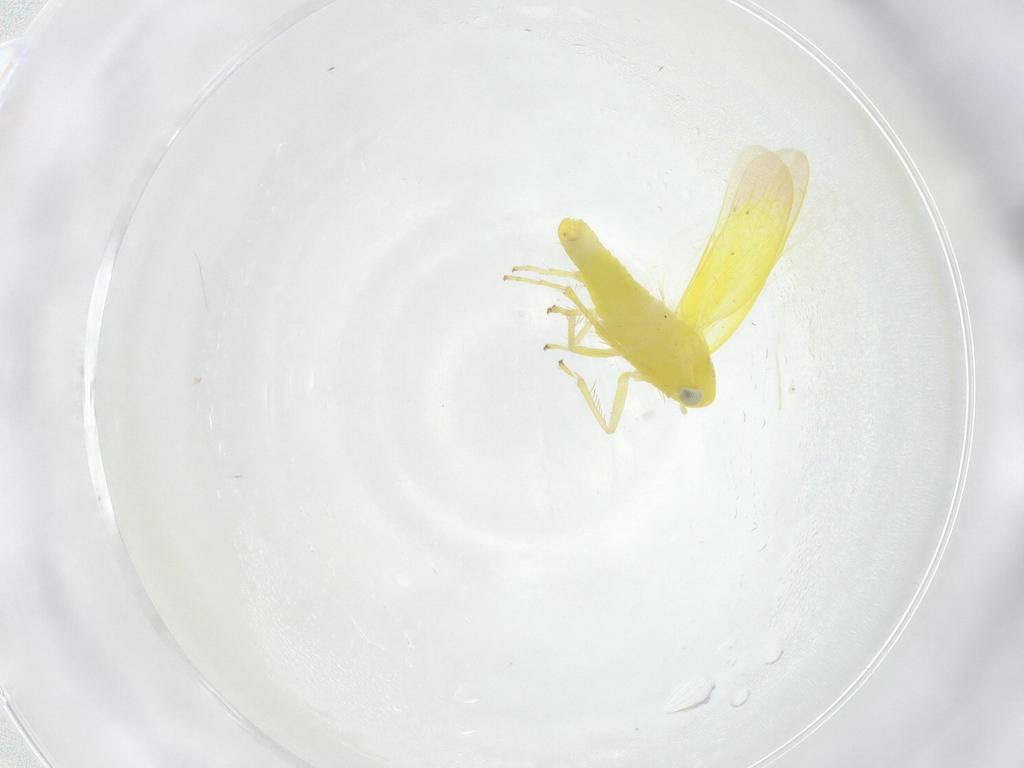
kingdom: Animalia
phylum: Arthropoda
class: Insecta
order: Hemiptera
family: Cicadellidae
